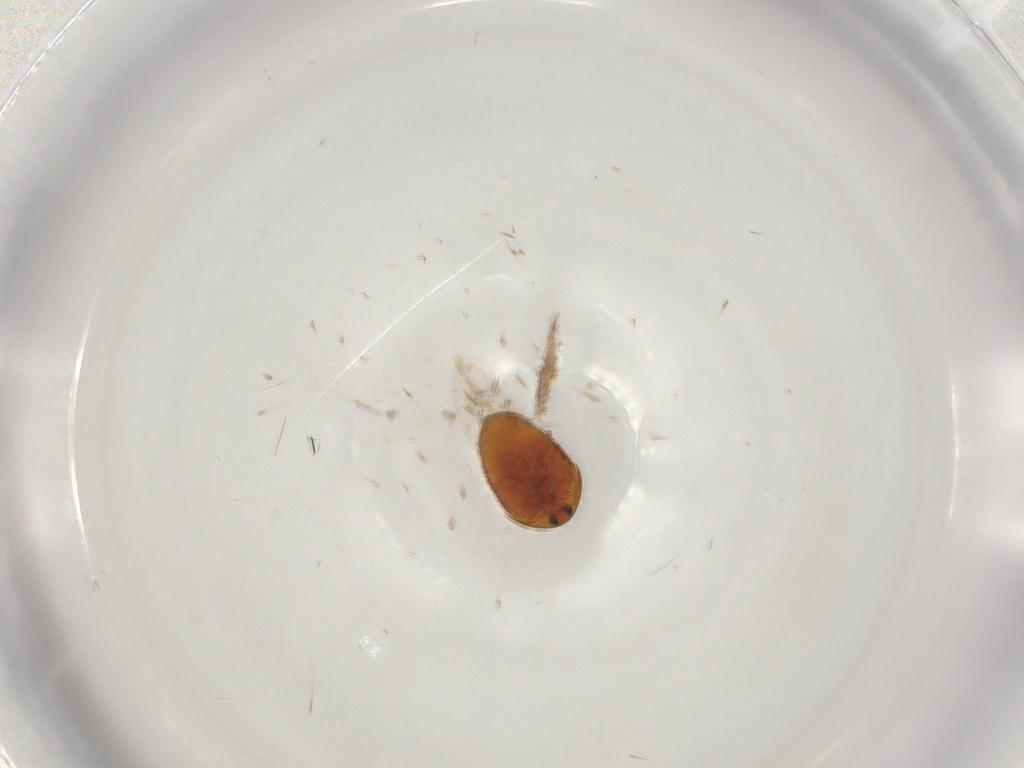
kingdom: Animalia
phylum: Arthropoda
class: Insecta
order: Coleoptera
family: Corylophidae
